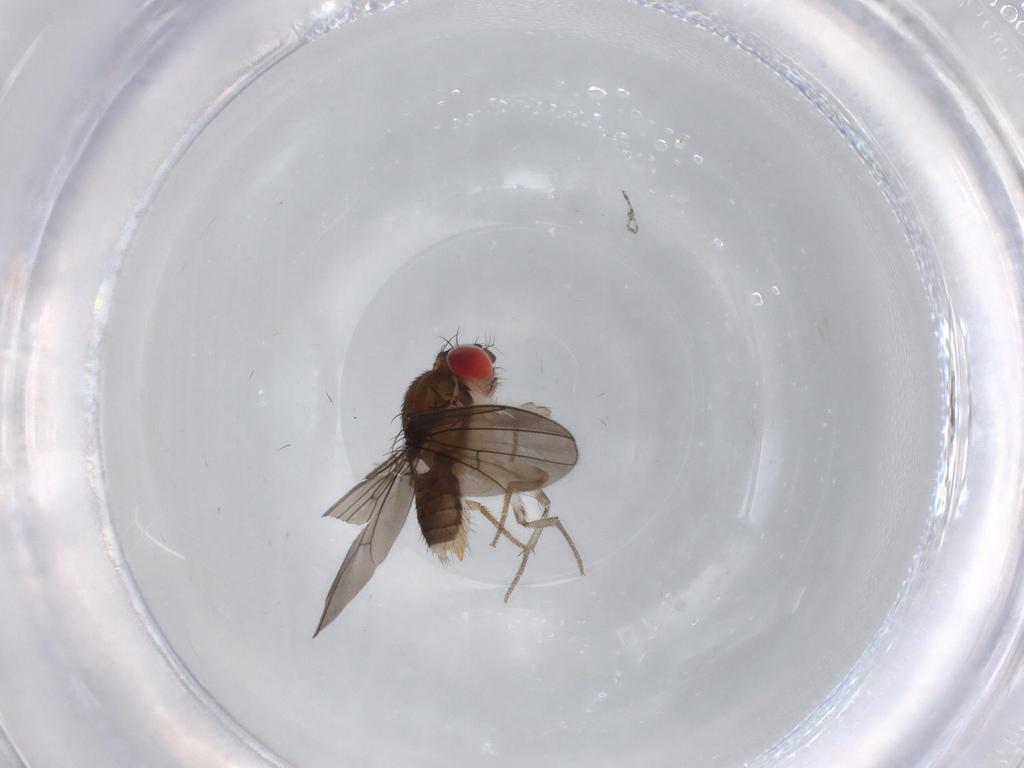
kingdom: Animalia
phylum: Arthropoda
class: Insecta
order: Diptera
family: Drosophilidae
